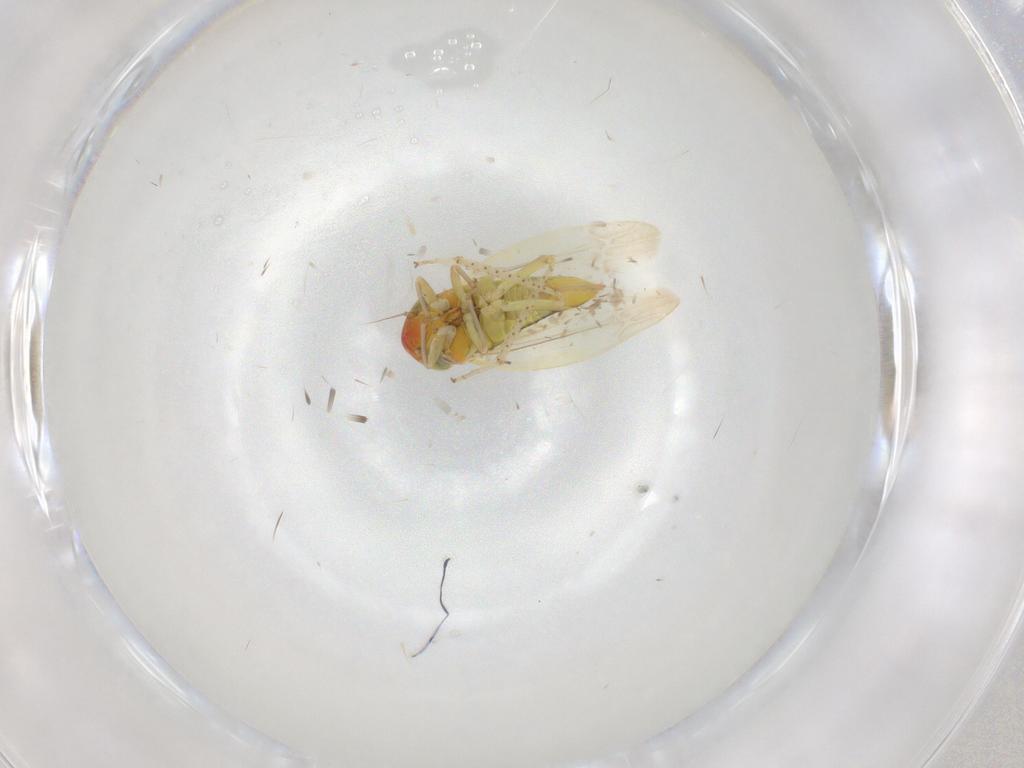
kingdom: Animalia
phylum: Arthropoda
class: Insecta
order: Hemiptera
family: Cicadellidae
